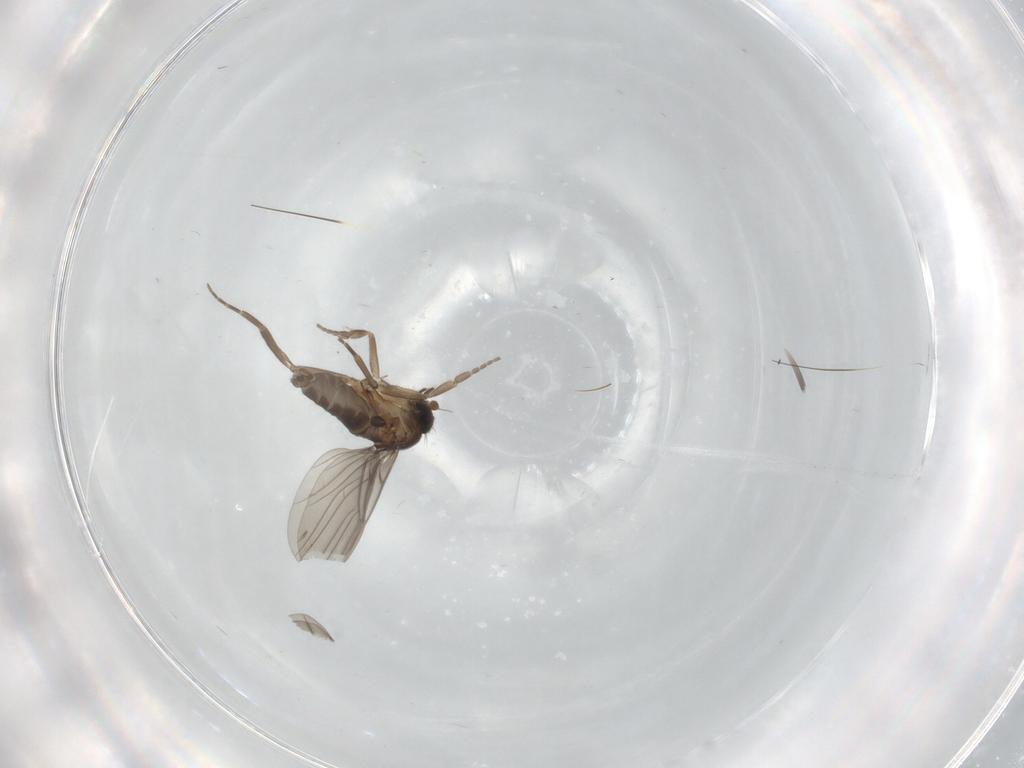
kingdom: Animalia
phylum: Arthropoda
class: Insecta
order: Diptera
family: Chironomidae
